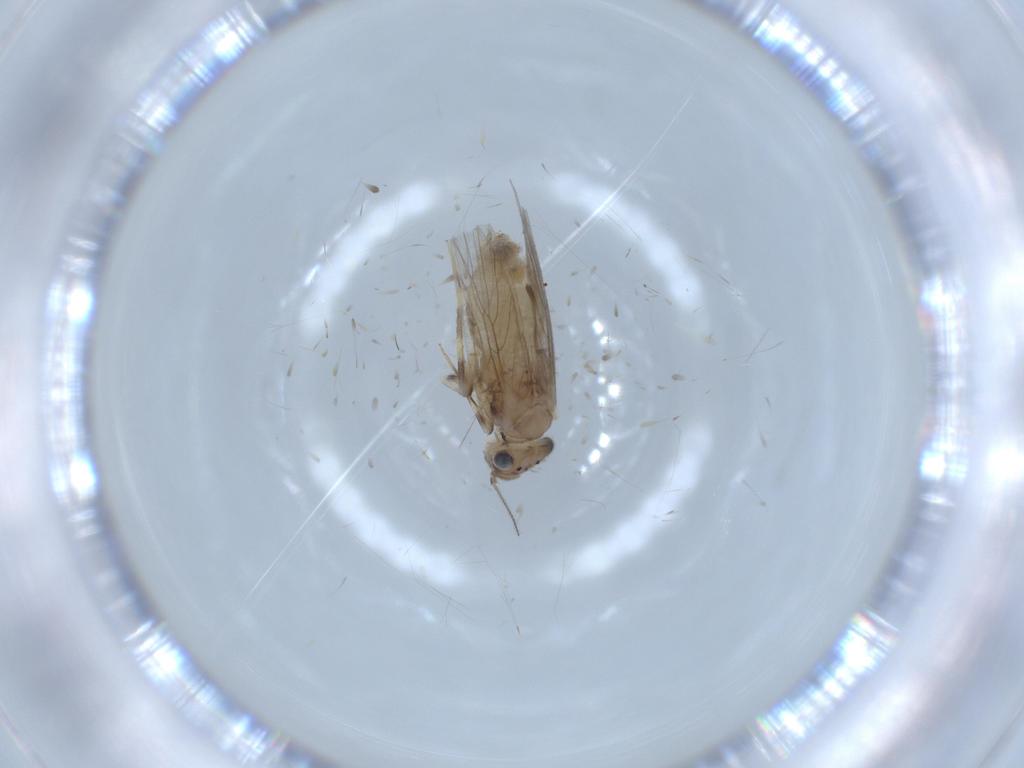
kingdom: Animalia
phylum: Arthropoda
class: Insecta
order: Psocodea
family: Lepidopsocidae
